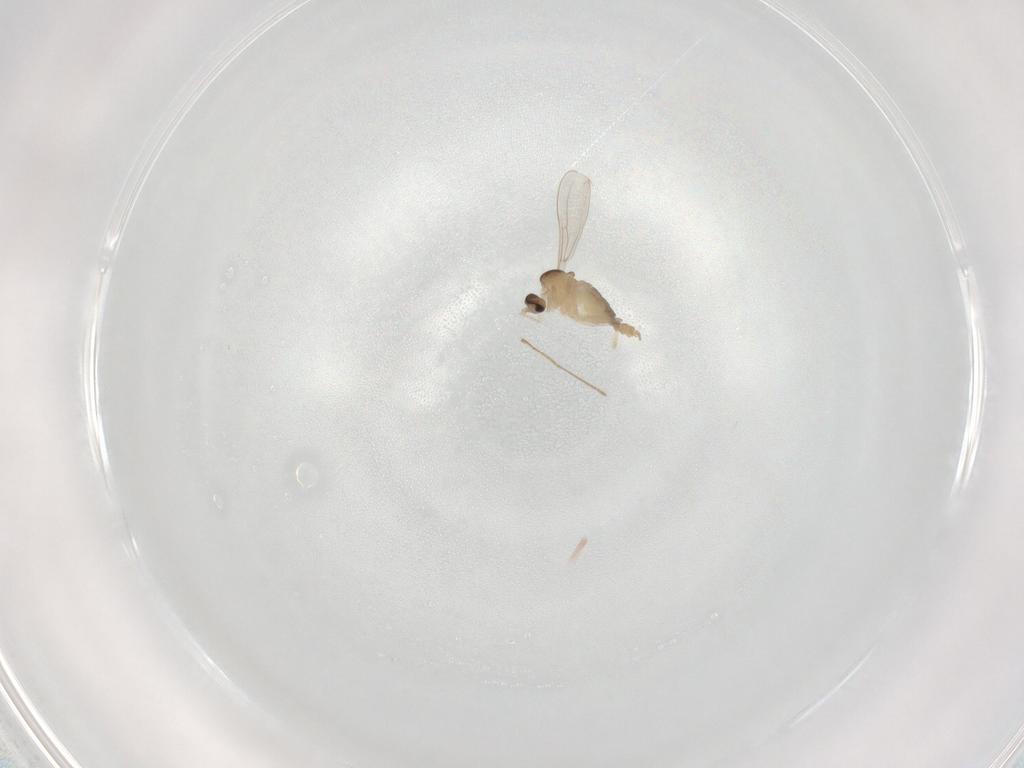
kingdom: Animalia
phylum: Arthropoda
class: Insecta
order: Diptera
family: Cecidomyiidae
